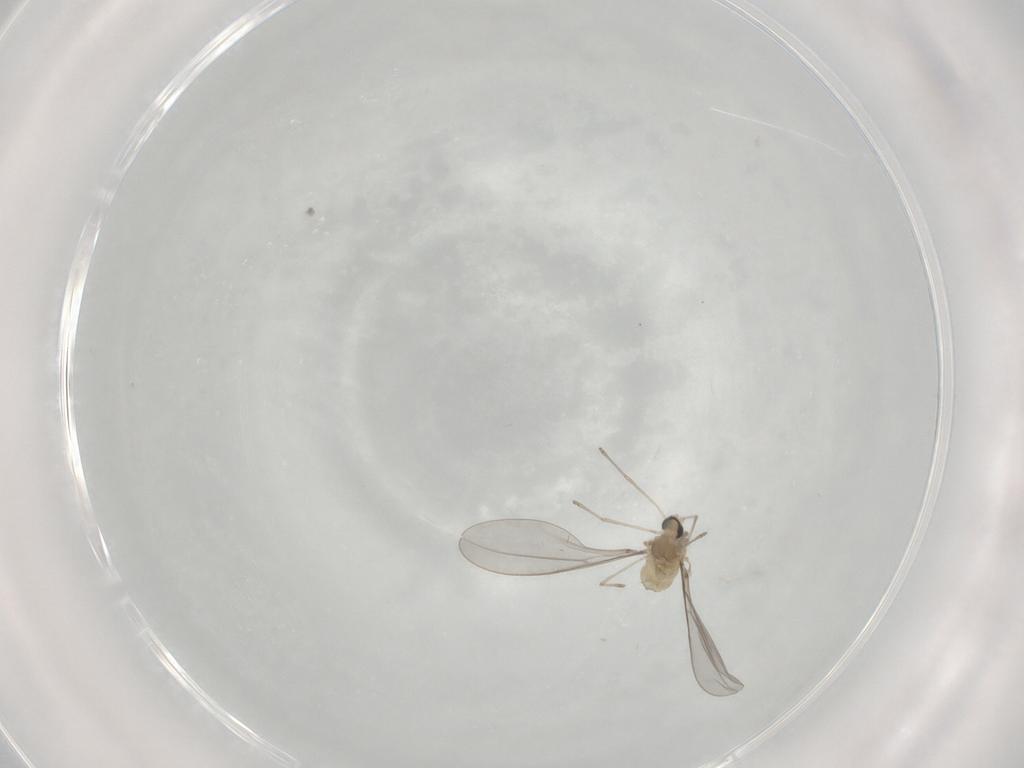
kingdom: Animalia
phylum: Arthropoda
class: Insecta
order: Diptera
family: Cecidomyiidae
